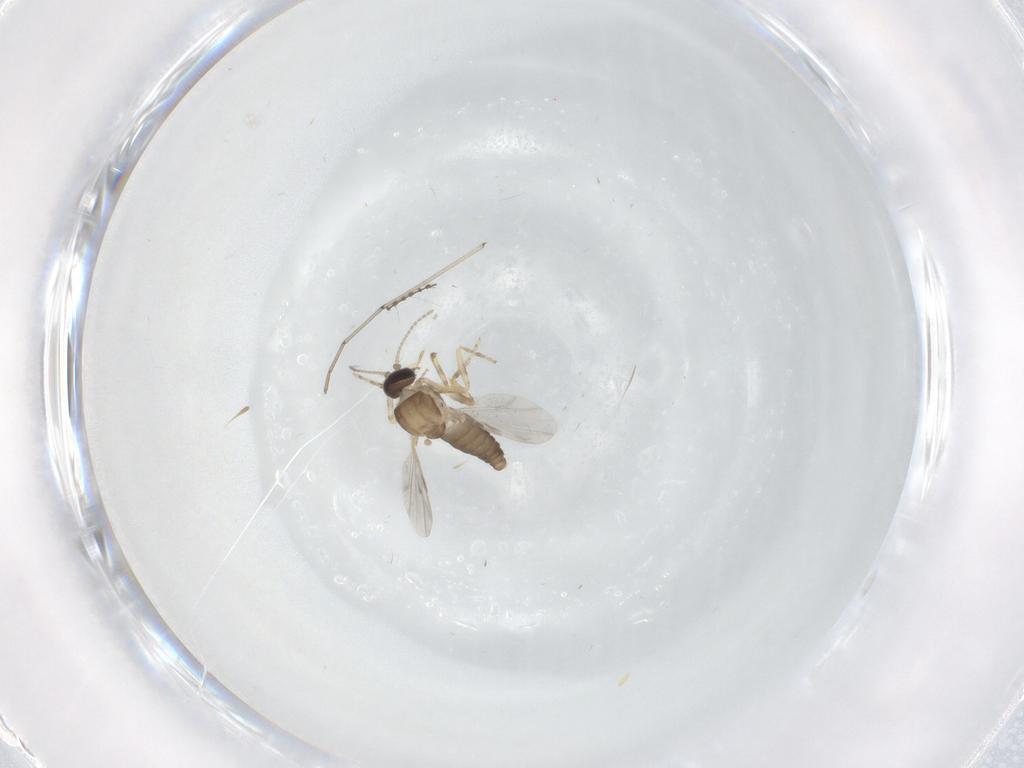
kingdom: Animalia
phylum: Arthropoda
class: Insecta
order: Diptera
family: Ceratopogonidae
